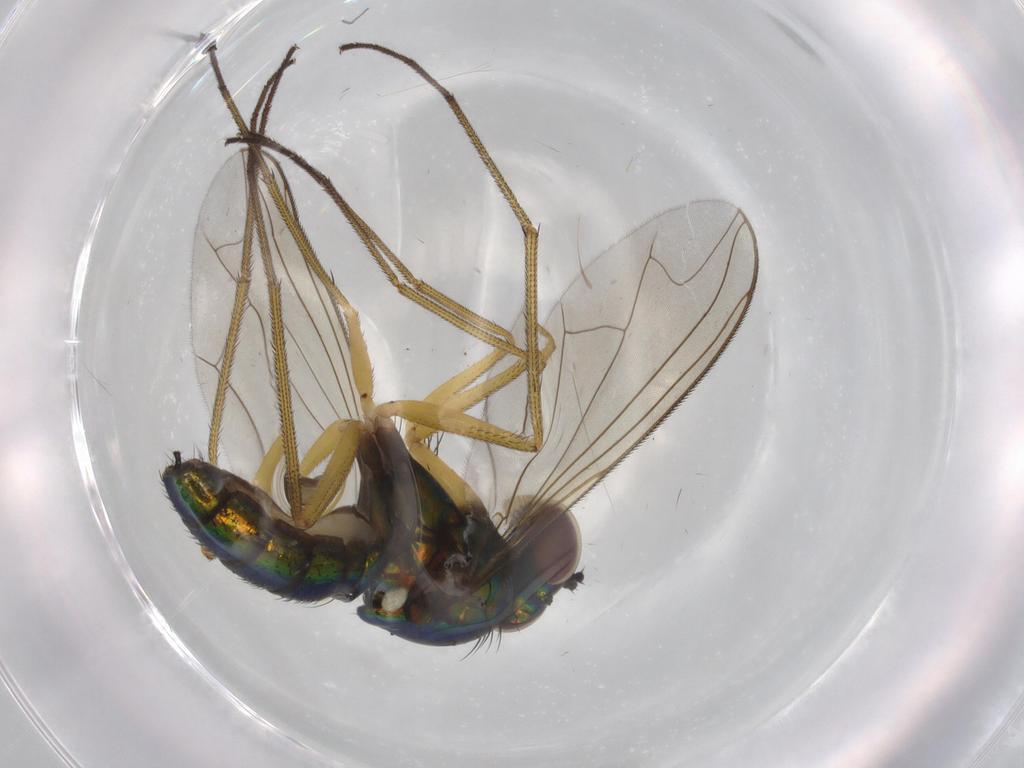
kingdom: Animalia
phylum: Arthropoda
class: Insecta
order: Diptera
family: Dolichopodidae
